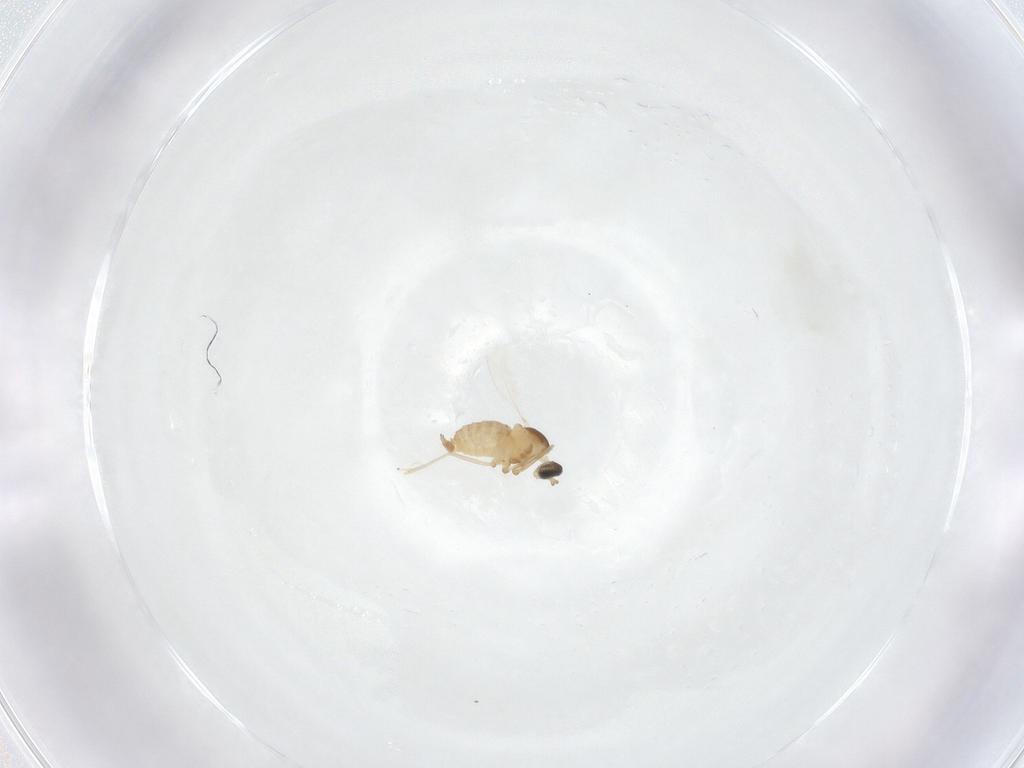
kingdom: Animalia
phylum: Arthropoda
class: Insecta
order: Diptera
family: Cecidomyiidae
